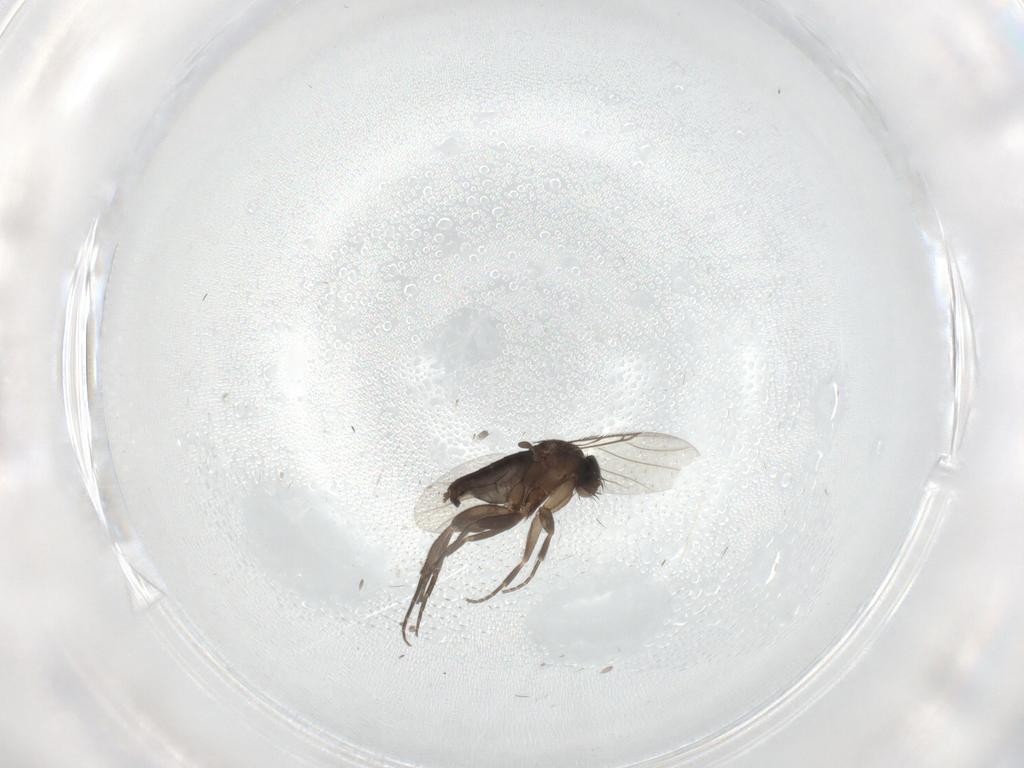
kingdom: Animalia
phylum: Arthropoda
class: Insecta
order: Diptera
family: Phoridae
